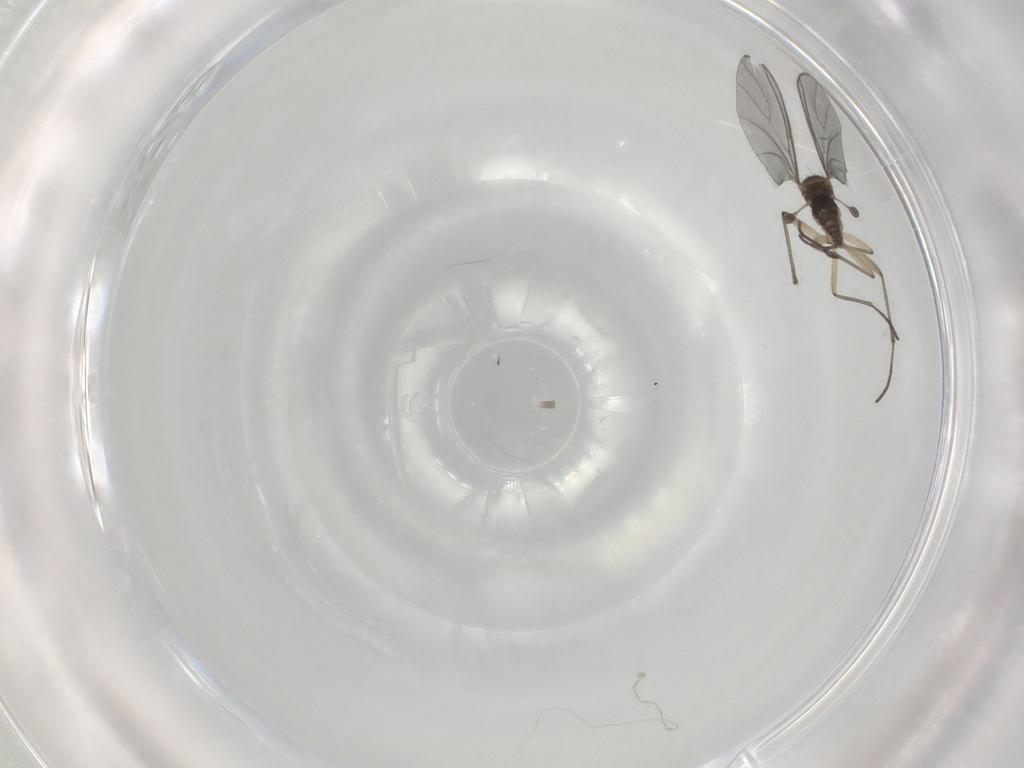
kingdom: Animalia
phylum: Arthropoda
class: Insecta
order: Diptera
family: Sciaridae
